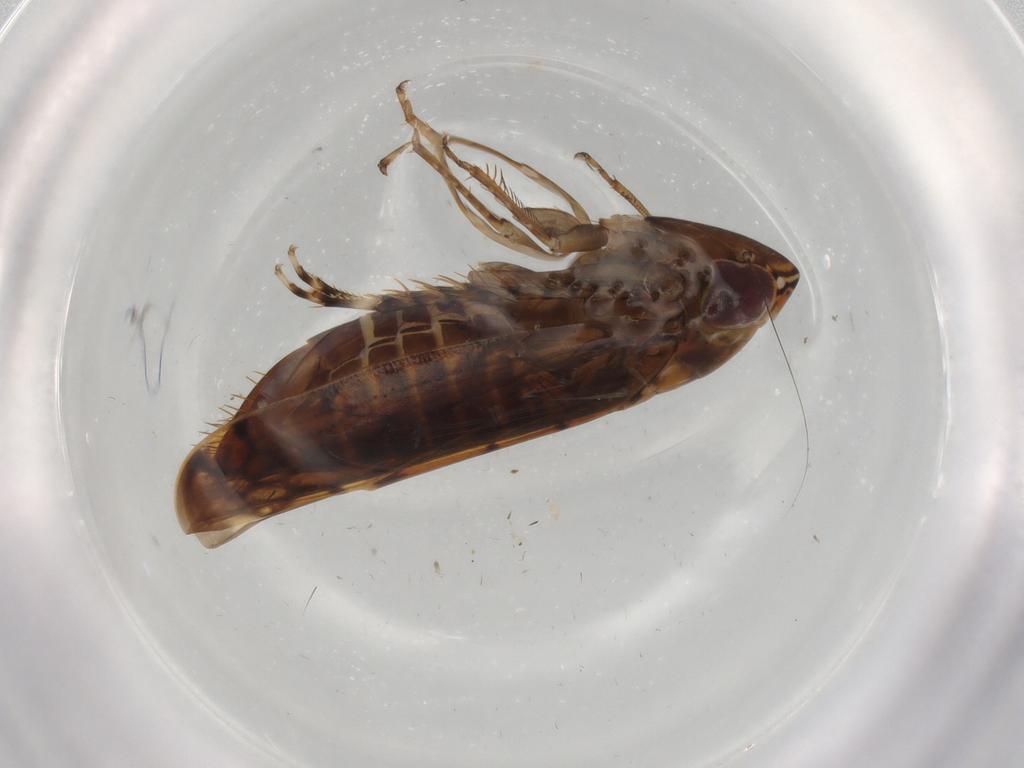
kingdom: Animalia
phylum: Arthropoda
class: Insecta
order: Hemiptera
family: Cicadellidae
